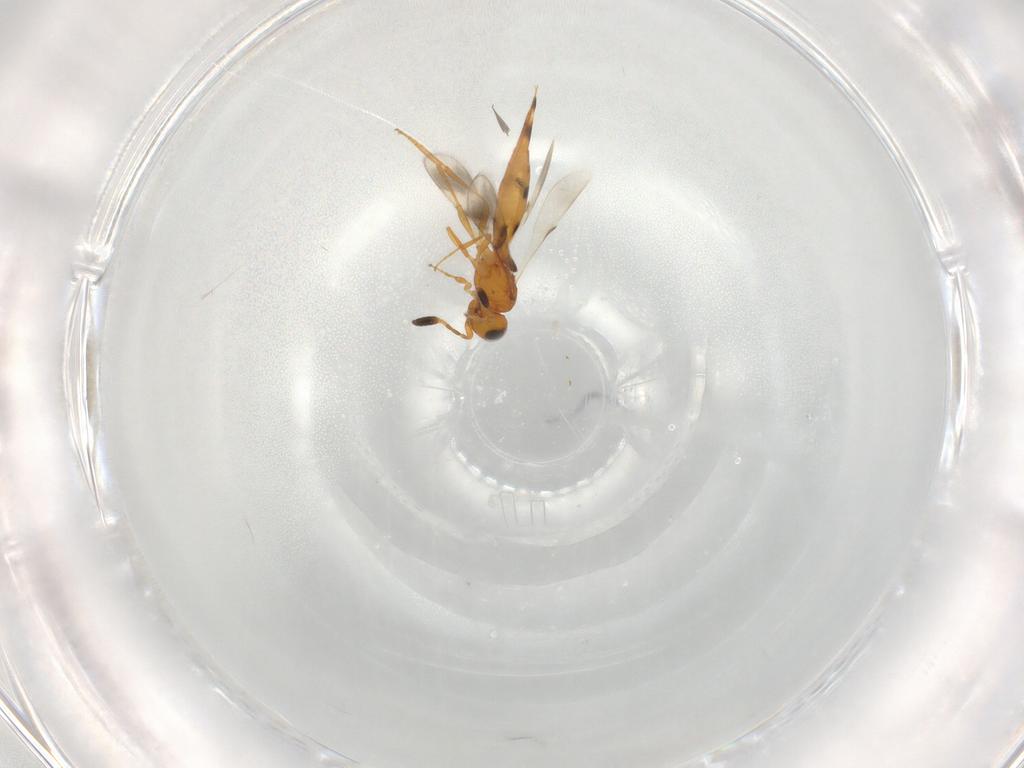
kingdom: Animalia
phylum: Arthropoda
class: Insecta
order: Hymenoptera
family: Scelionidae
